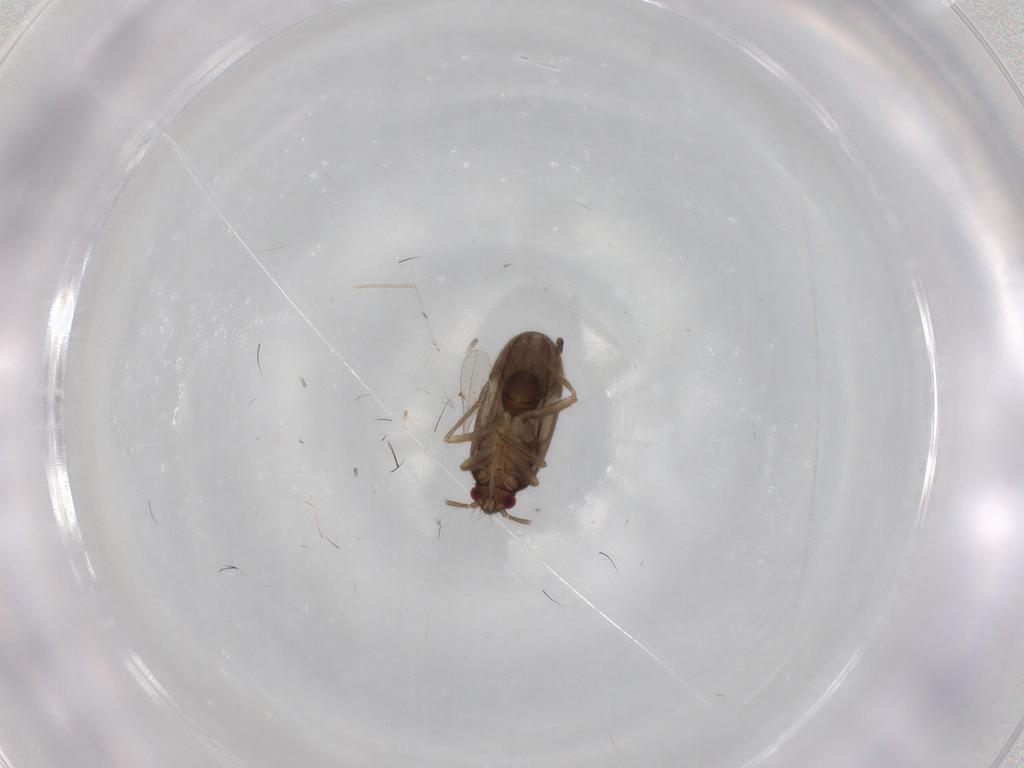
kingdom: Animalia
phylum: Arthropoda
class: Insecta
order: Hemiptera
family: Ceratocombidae
